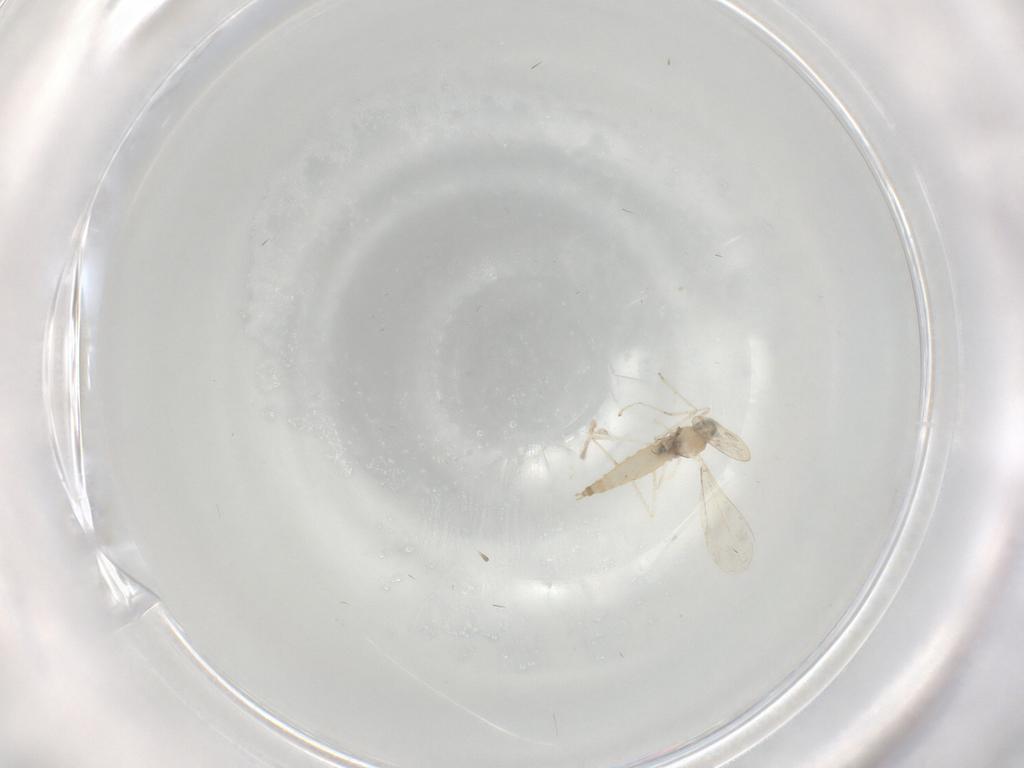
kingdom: Animalia
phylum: Arthropoda
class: Insecta
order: Diptera
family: Cecidomyiidae
